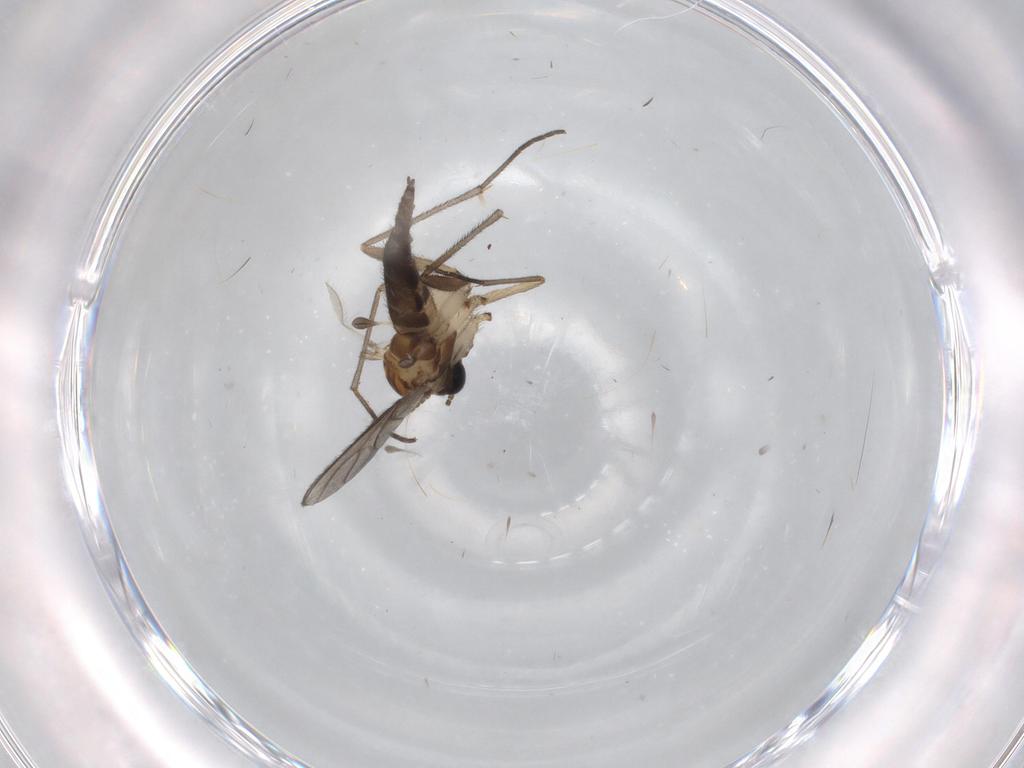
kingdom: Animalia
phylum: Arthropoda
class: Insecta
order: Diptera
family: Sciaridae
